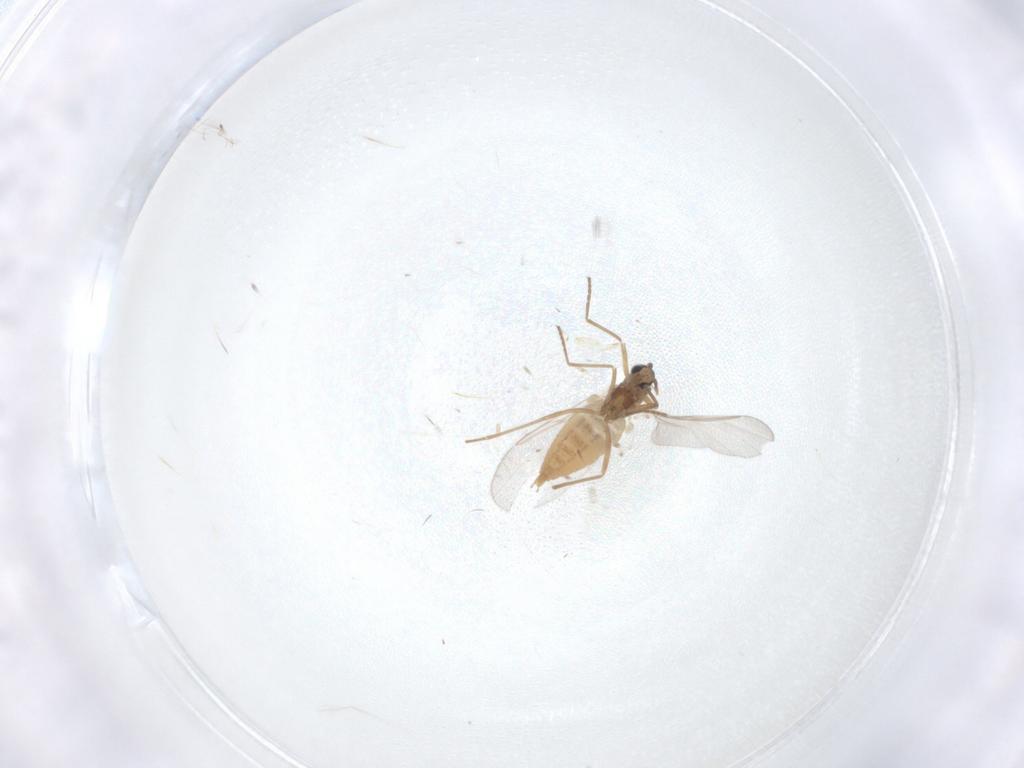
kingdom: Animalia
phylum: Arthropoda
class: Insecta
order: Diptera
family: Cecidomyiidae
